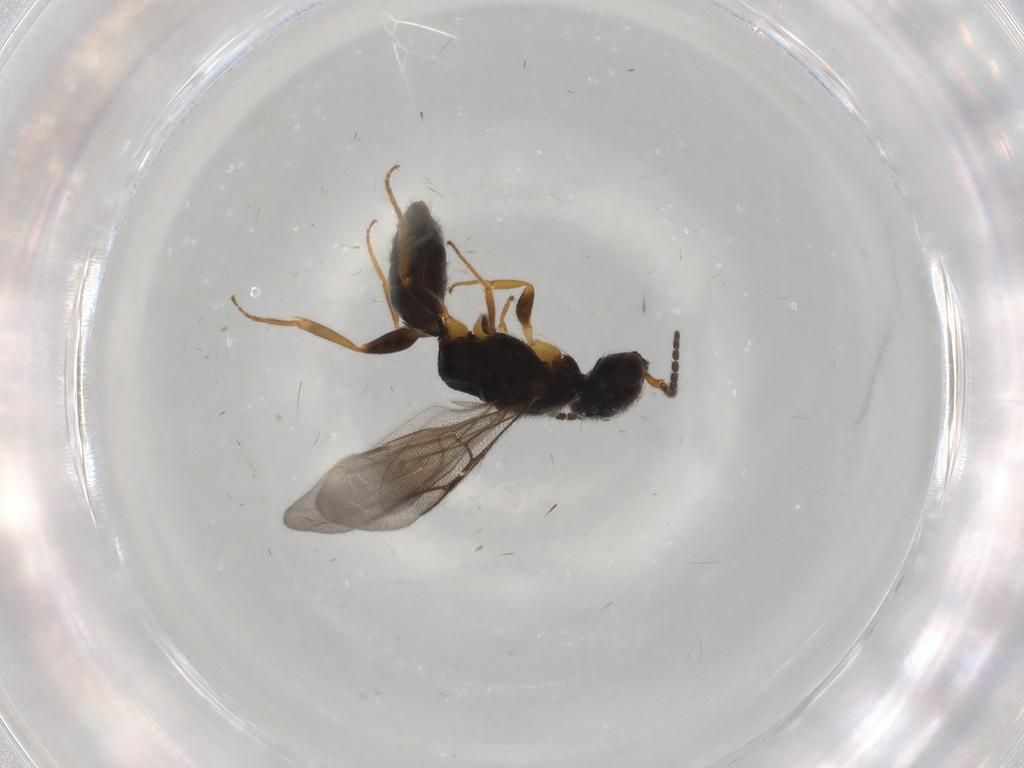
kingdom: Animalia
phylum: Arthropoda
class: Insecta
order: Hymenoptera
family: Bethylidae
